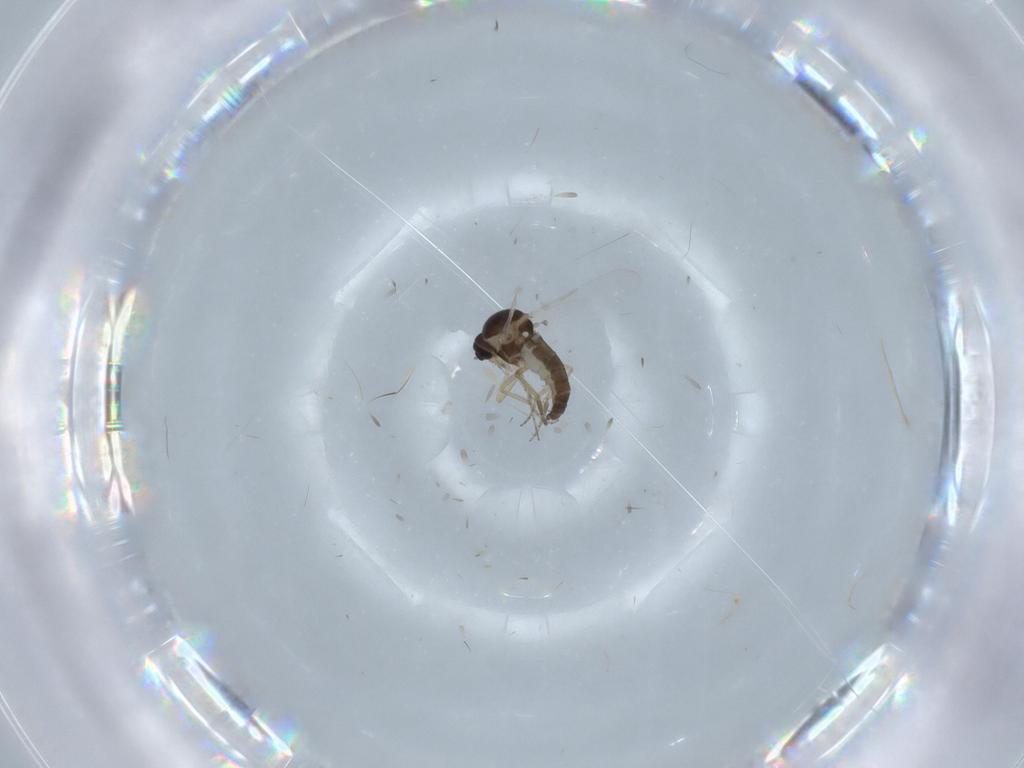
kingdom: Animalia
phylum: Arthropoda
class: Insecta
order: Diptera
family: Ceratopogonidae
